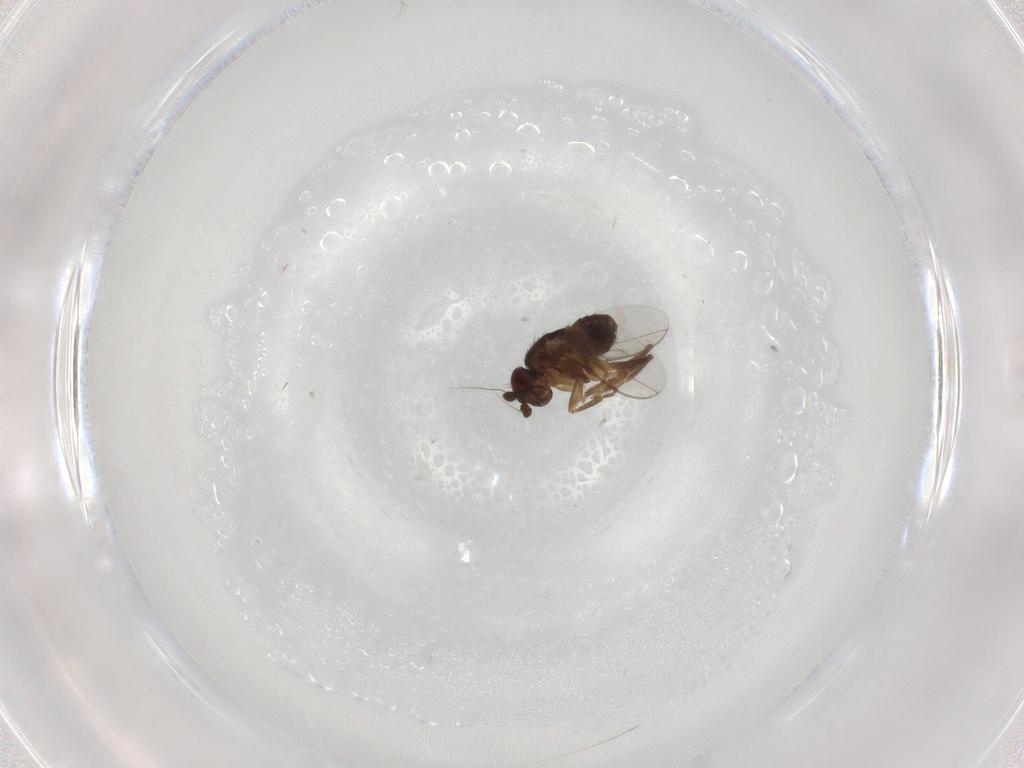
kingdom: Animalia
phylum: Arthropoda
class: Insecta
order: Diptera
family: Sphaeroceridae
